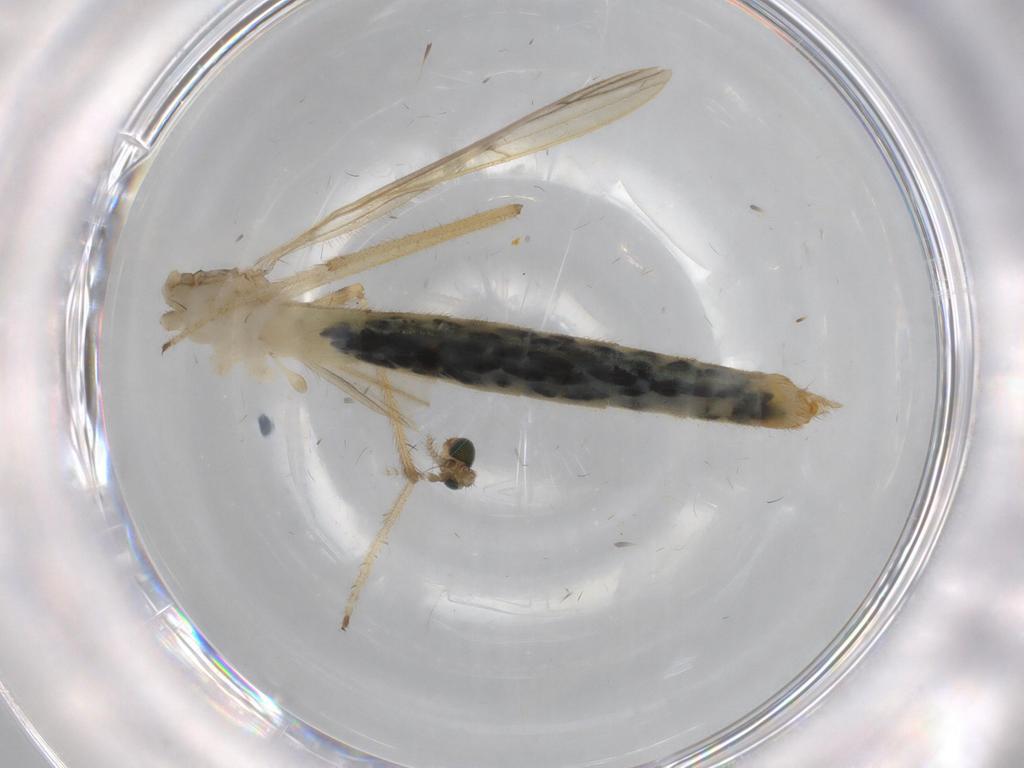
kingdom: Animalia
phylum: Arthropoda
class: Insecta
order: Diptera
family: Limoniidae
